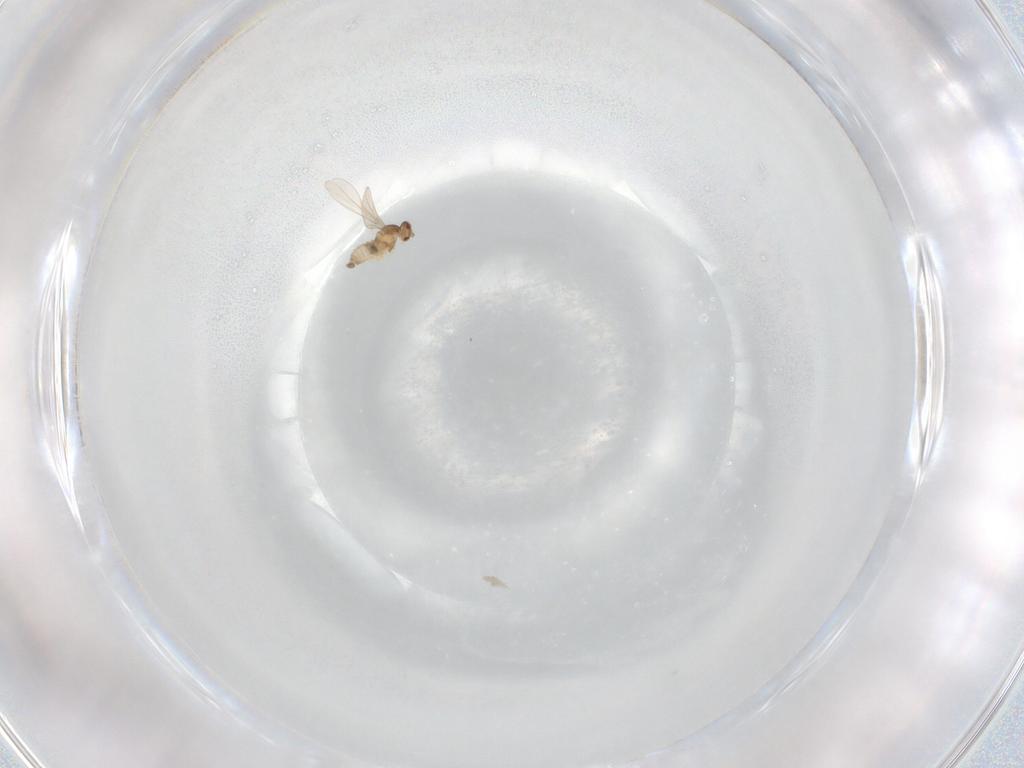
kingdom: Animalia
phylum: Arthropoda
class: Insecta
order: Diptera
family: Cecidomyiidae
